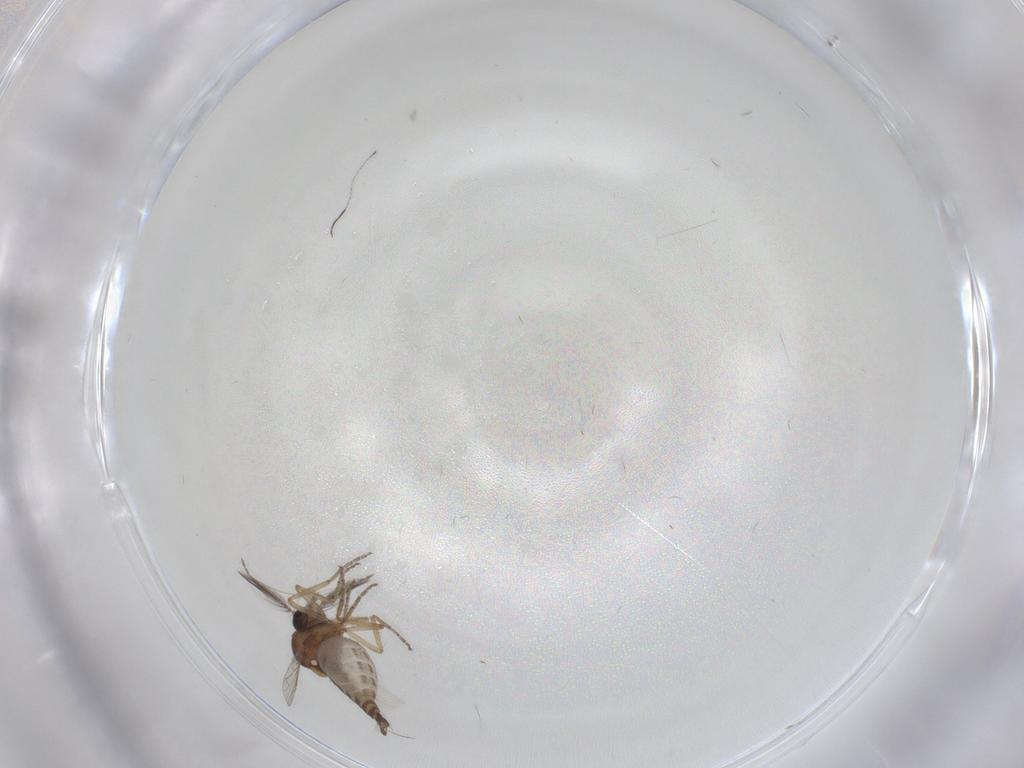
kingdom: Animalia
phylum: Arthropoda
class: Insecta
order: Diptera
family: Ceratopogonidae
